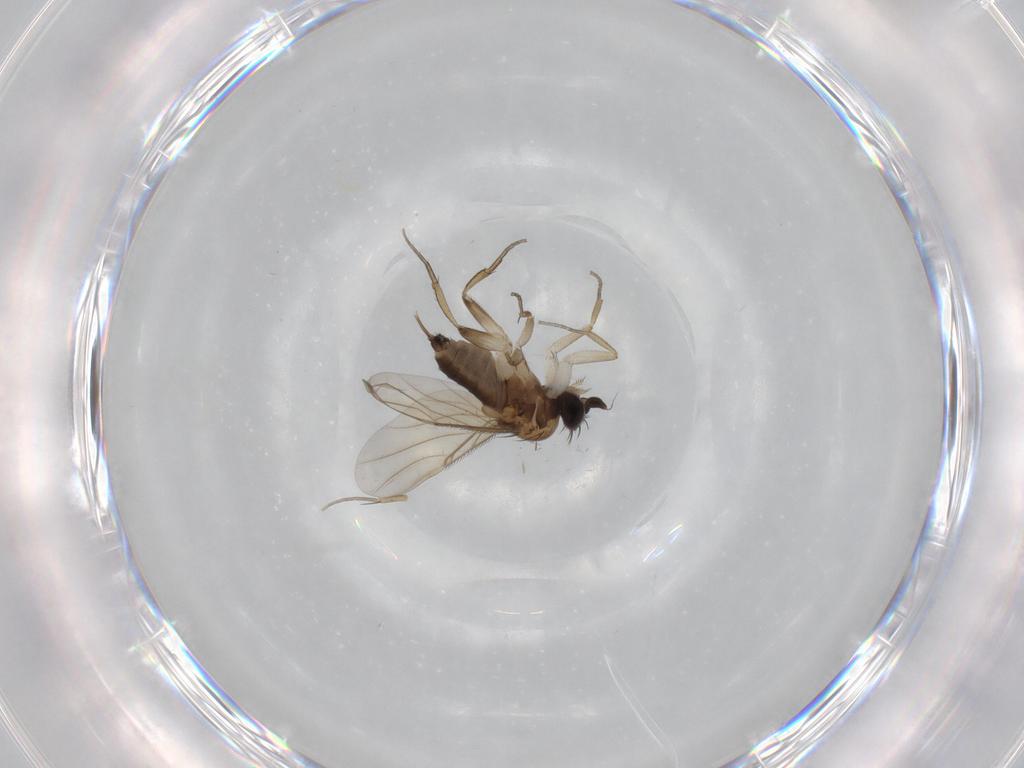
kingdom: Animalia
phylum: Arthropoda
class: Insecta
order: Diptera
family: Phoridae
